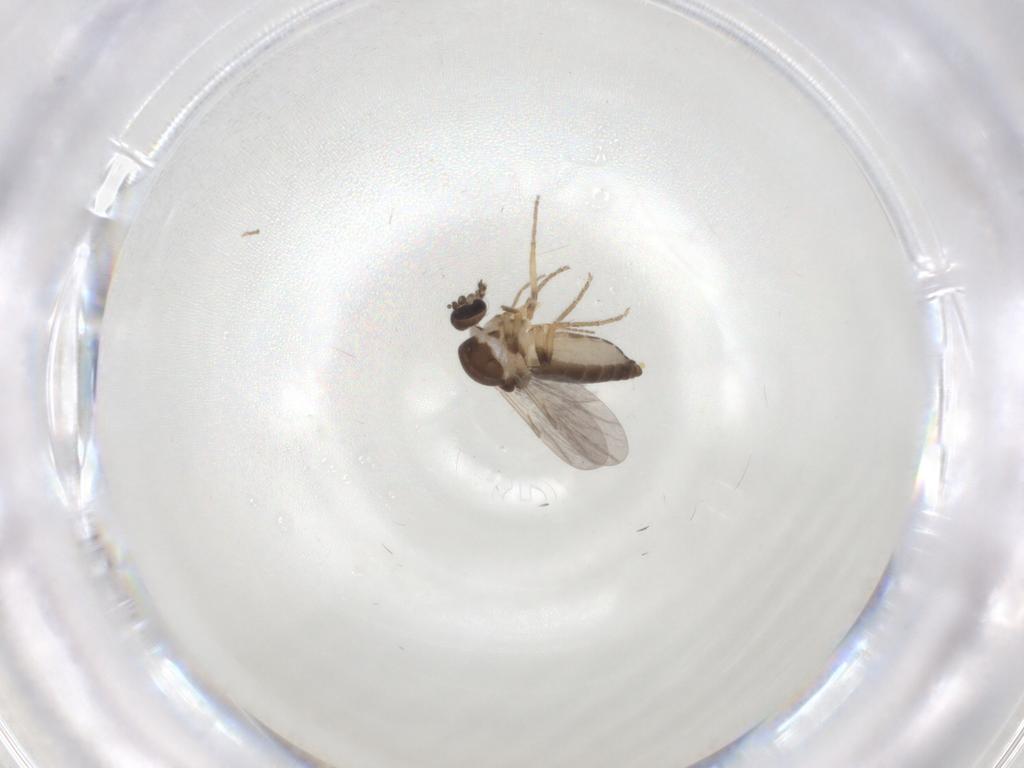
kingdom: Animalia
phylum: Arthropoda
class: Insecta
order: Diptera
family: Ceratopogonidae
